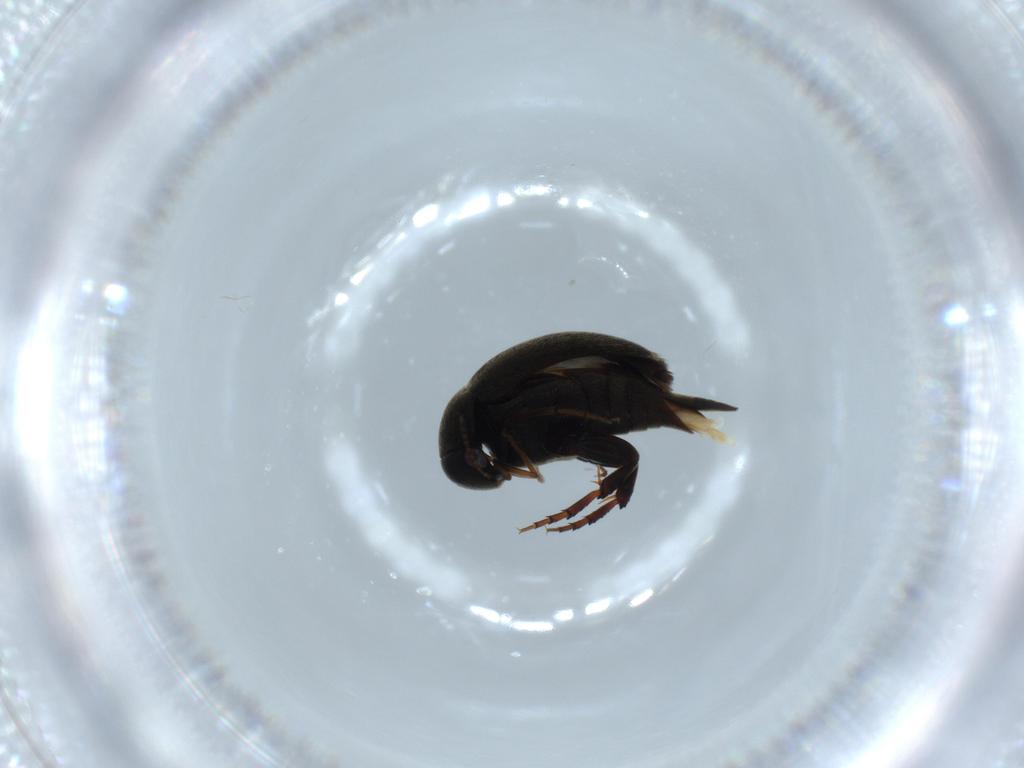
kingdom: Animalia
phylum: Arthropoda
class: Insecta
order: Coleoptera
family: Mordellidae
